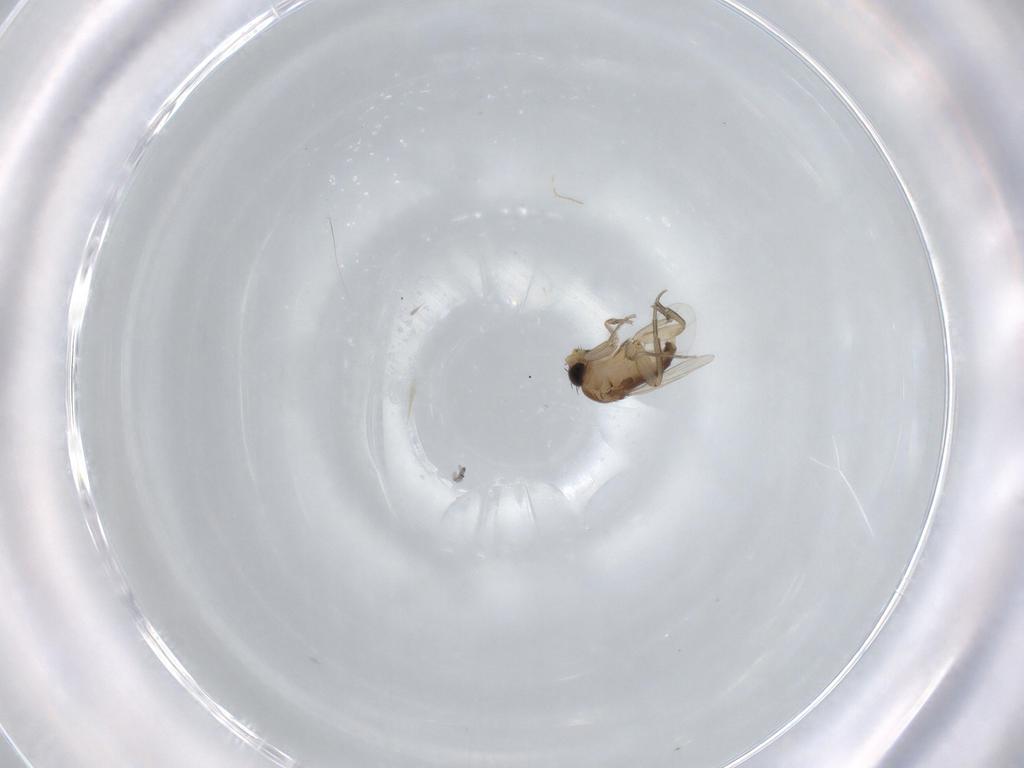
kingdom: Animalia
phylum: Arthropoda
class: Insecta
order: Diptera
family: Phoridae
